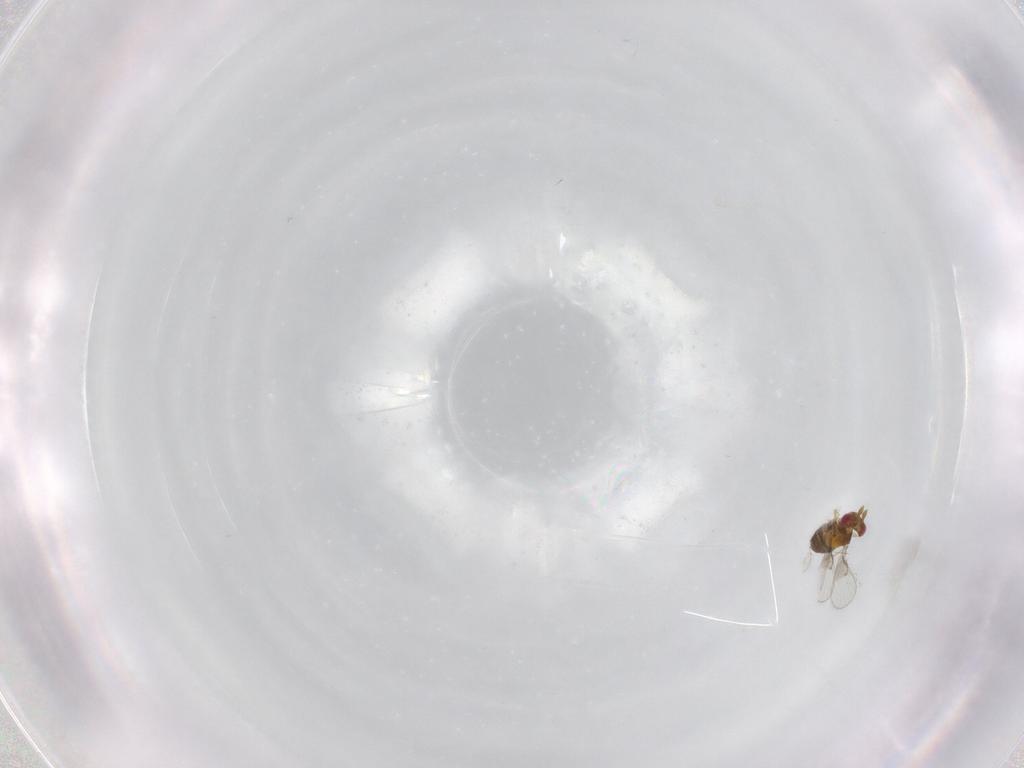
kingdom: Animalia
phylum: Arthropoda
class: Insecta
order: Hymenoptera
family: Trichogrammatidae
